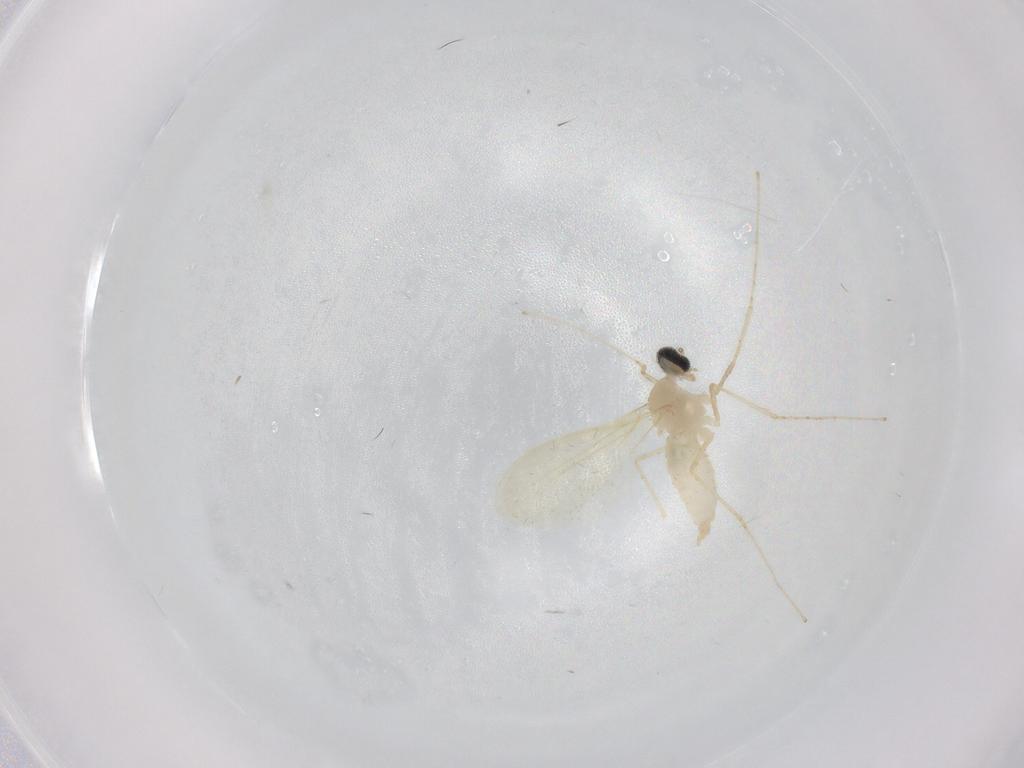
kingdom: Animalia
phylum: Arthropoda
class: Insecta
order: Diptera
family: Cecidomyiidae
